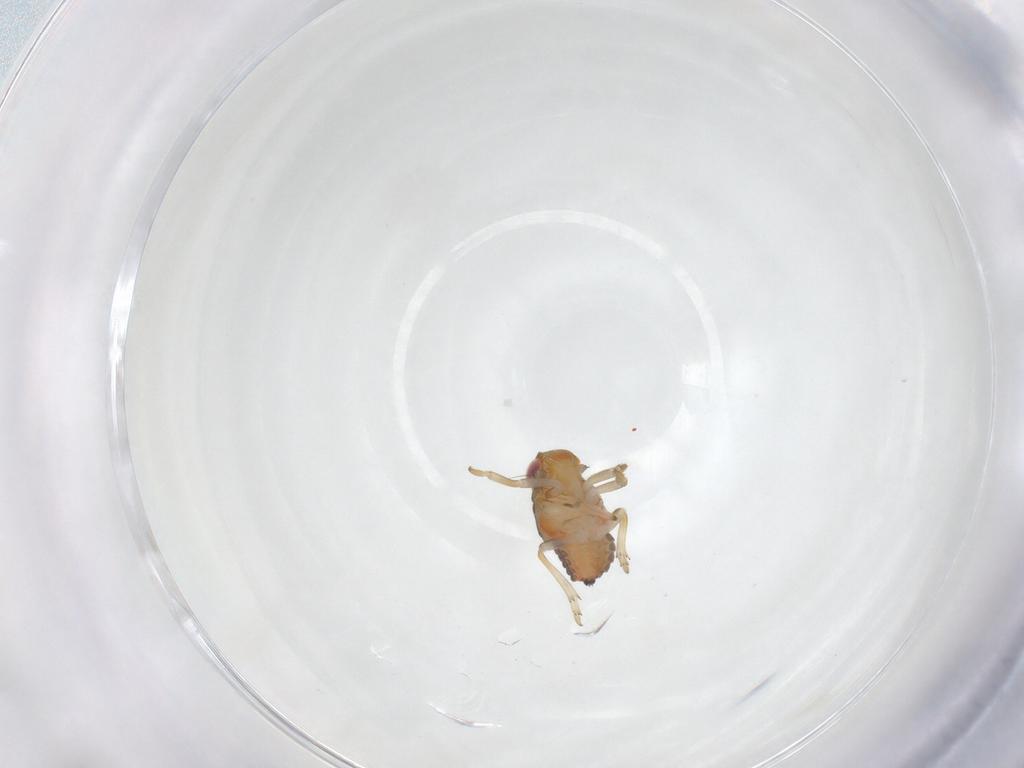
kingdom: Animalia
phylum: Arthropoda
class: Insecta
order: Hemiptera
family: Issidae
